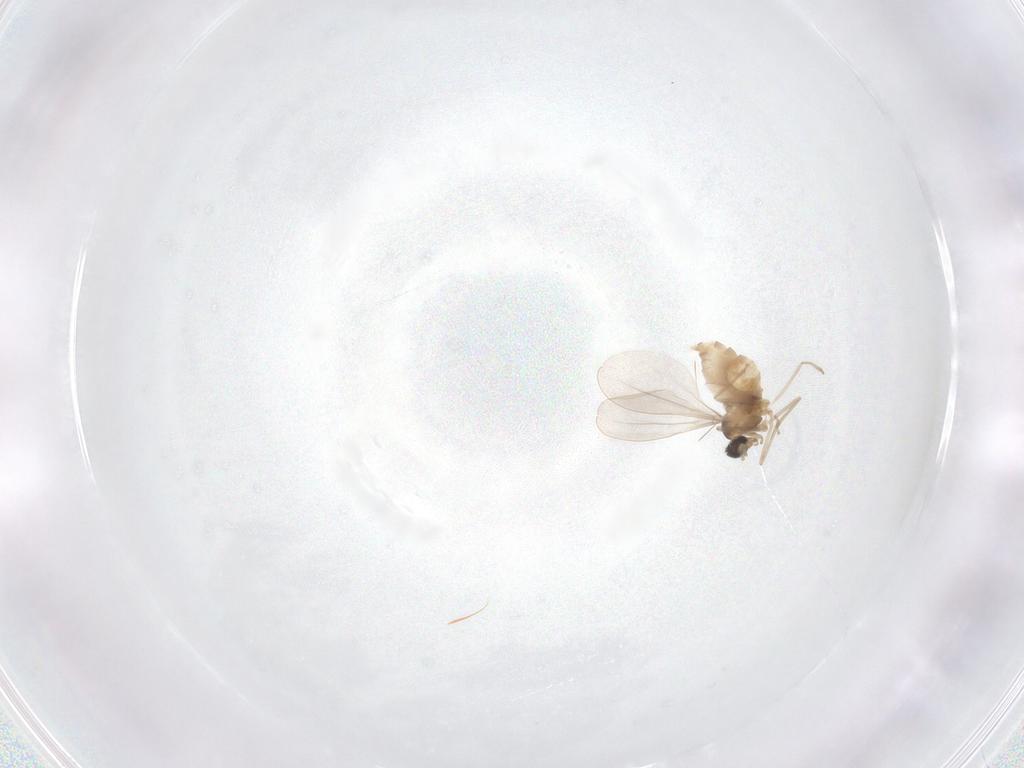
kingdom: Animalia
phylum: Arthropoda
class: Insecta
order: Diptera
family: Cecidomyiidae
